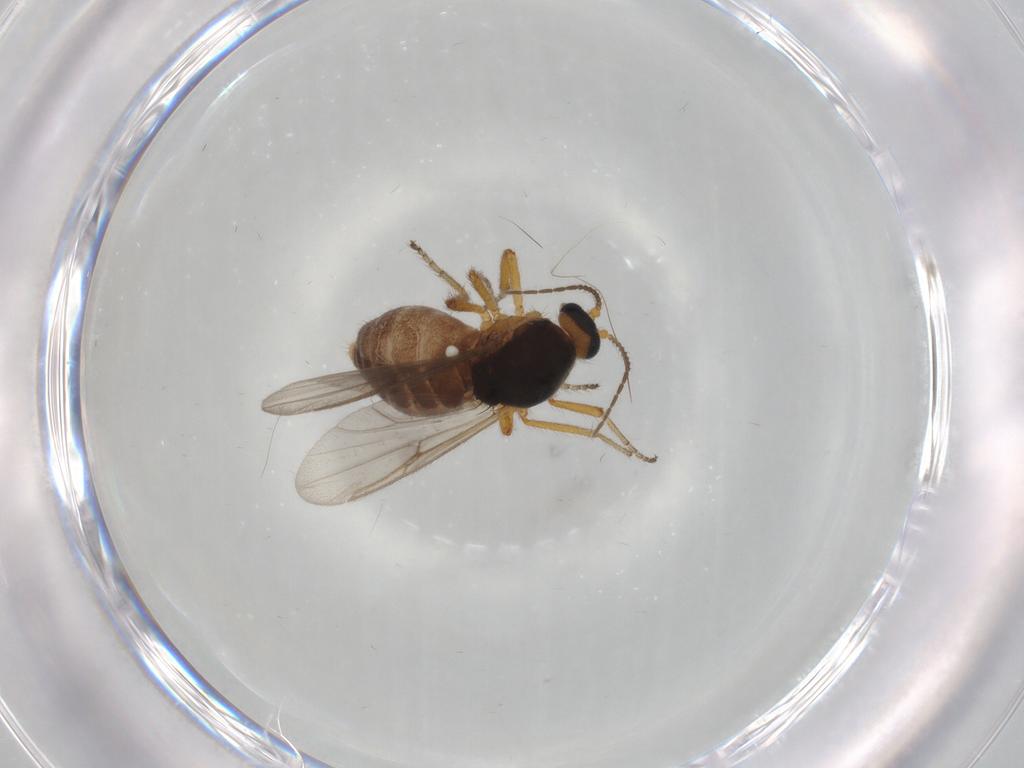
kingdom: Animalia
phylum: Arthropoda
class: Insecta
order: Diptera
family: Ceratopogonidae
